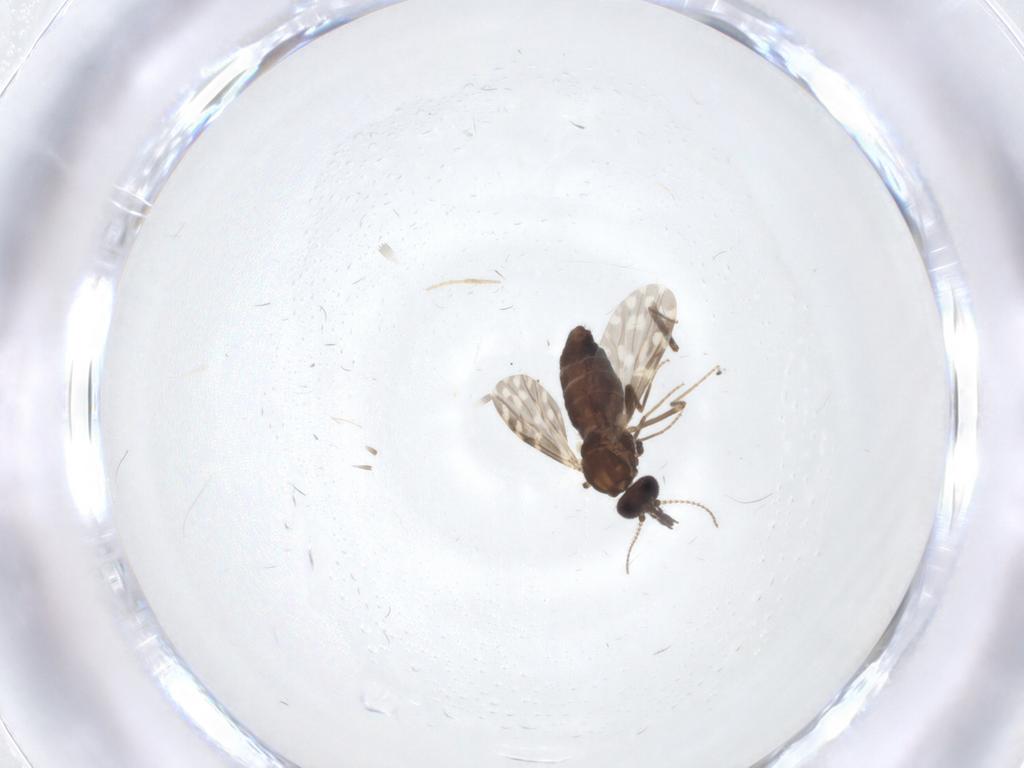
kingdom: Animalia
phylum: Arthropoda
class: Insecta
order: Diptera
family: Ceratopogonidae
